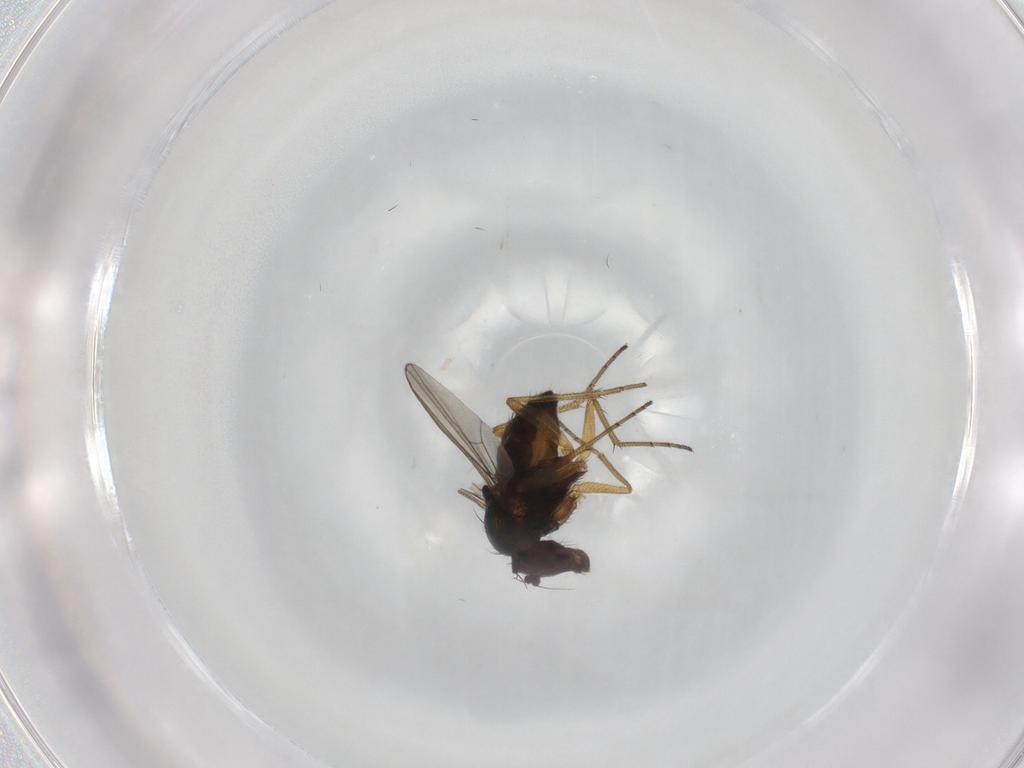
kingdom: Animalia
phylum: Arthropoda
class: Insecta
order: Diptera
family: Dolichopodidae
